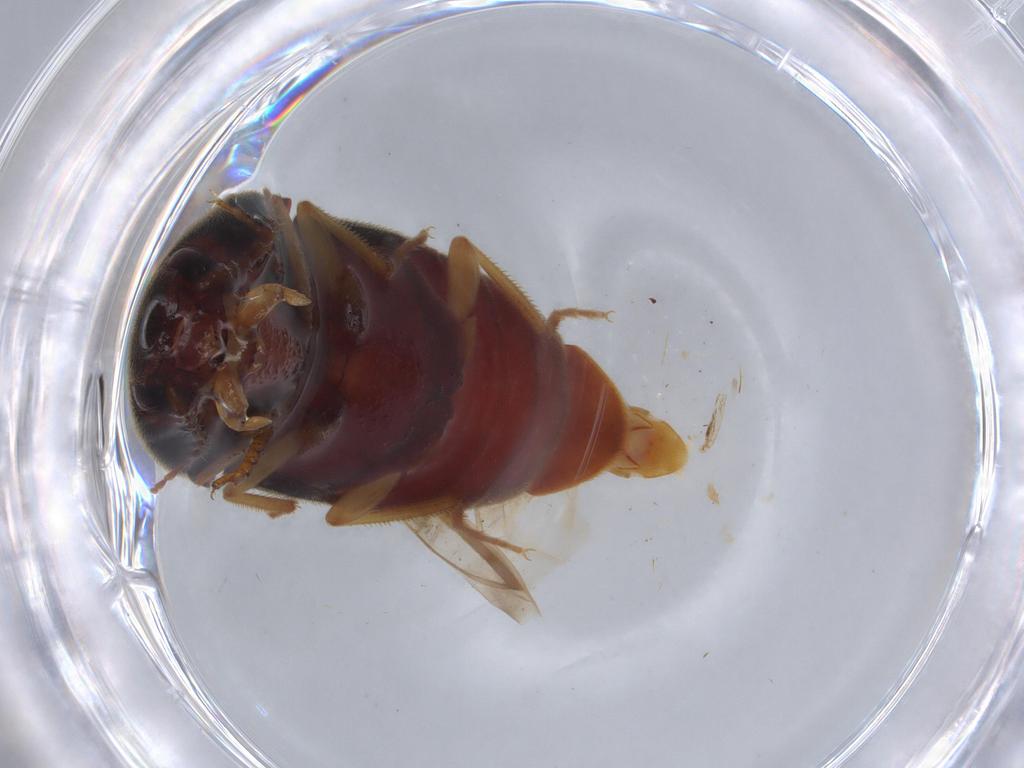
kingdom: Animalia
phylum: Arthropoda
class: Insecta
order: Coleoptera
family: Elateridae
